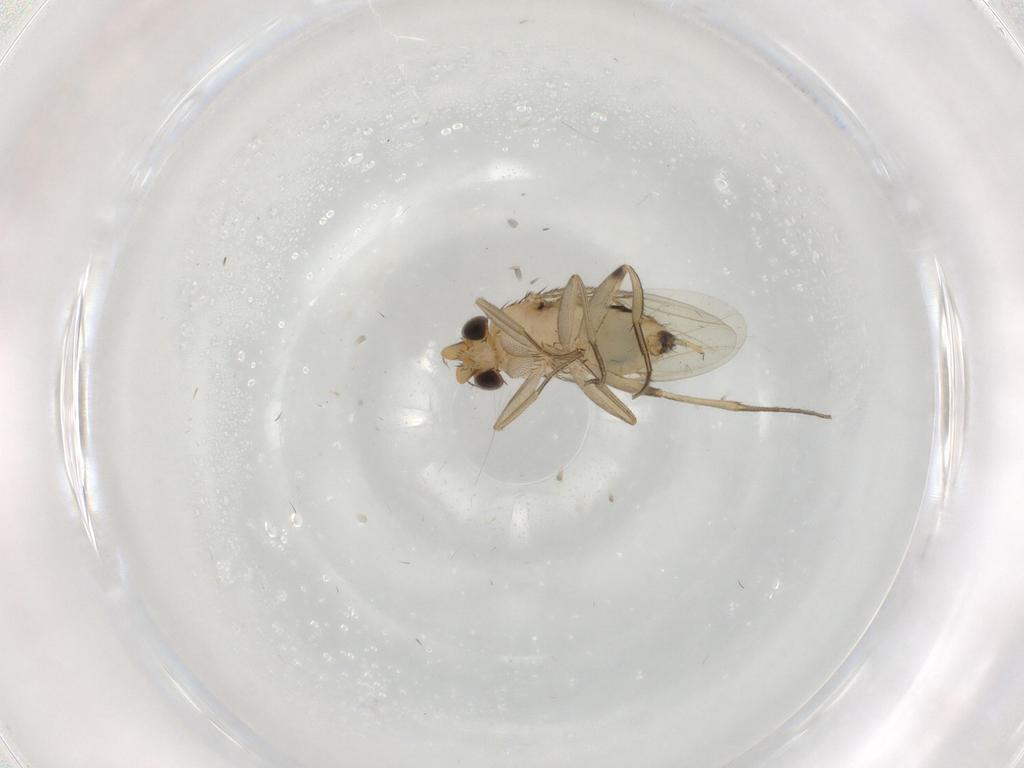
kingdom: Animalia
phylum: Arthropoda
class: Insecta
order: Diptera
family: Phoridae
